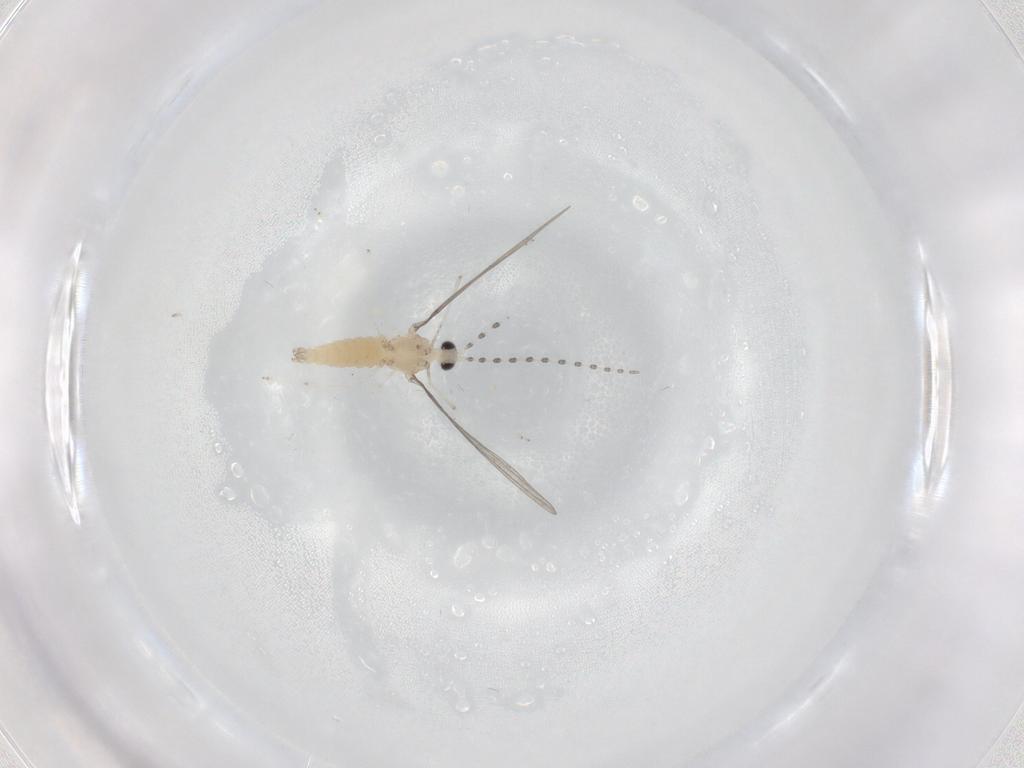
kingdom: Animalia
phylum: Arthropoda
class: Insecta
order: Diptera
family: Cecidomyiidae
